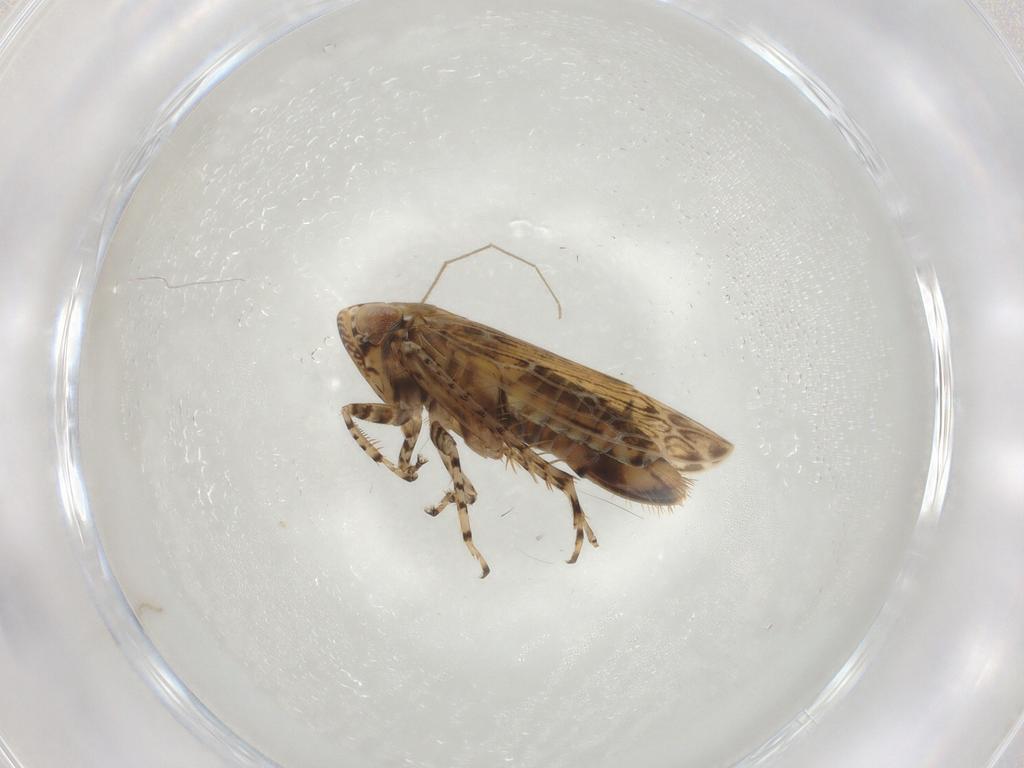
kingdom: Animalia
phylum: Arthropoda
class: Insecta
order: Hemiptera
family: Cicadellidae
